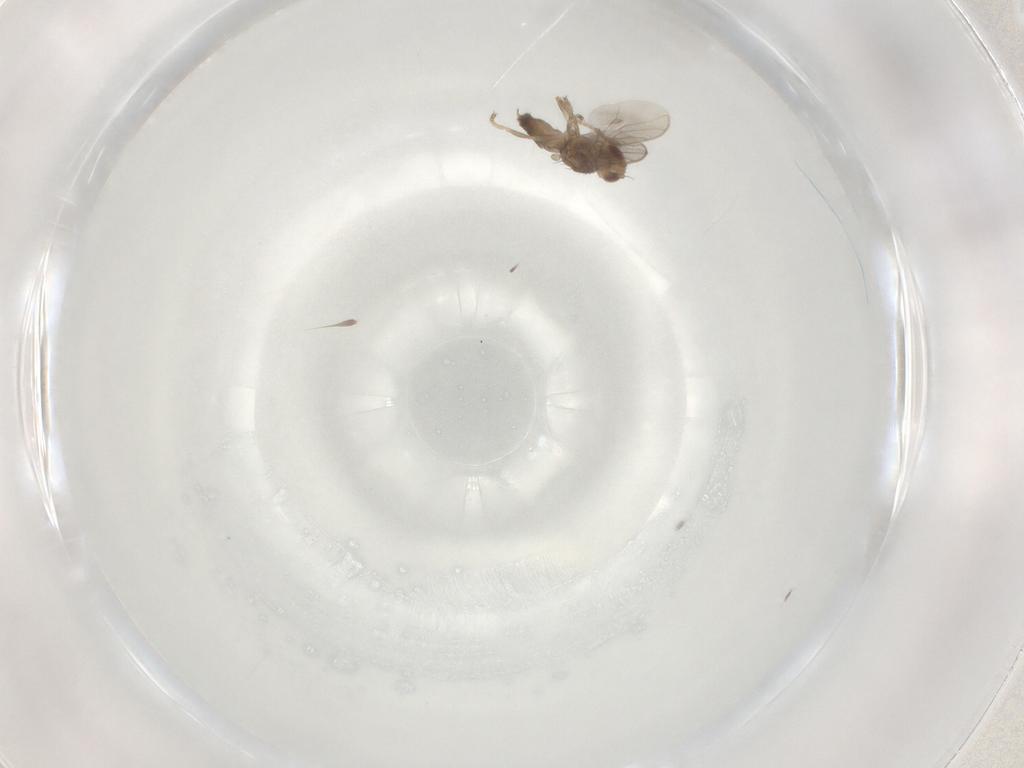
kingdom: Animalia
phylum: Arthropoda
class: Insecta
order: Diptera
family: Chloropidae
